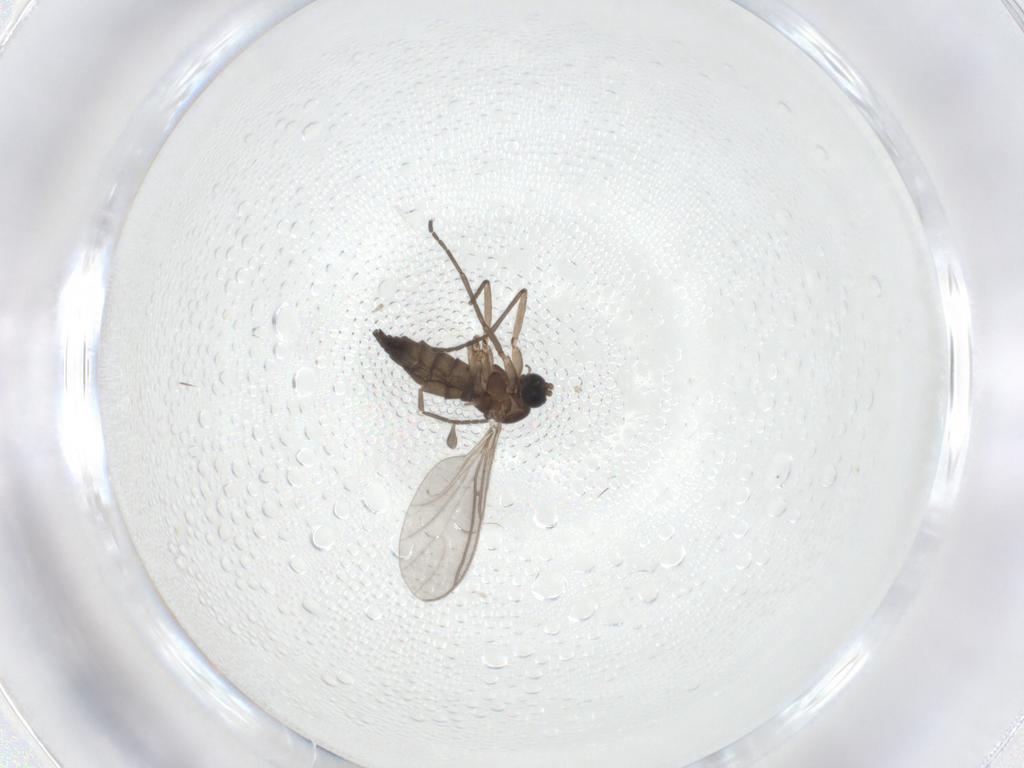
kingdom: Animalia
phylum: Arthropoda
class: Insecta
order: Diptera
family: Sciaridae
